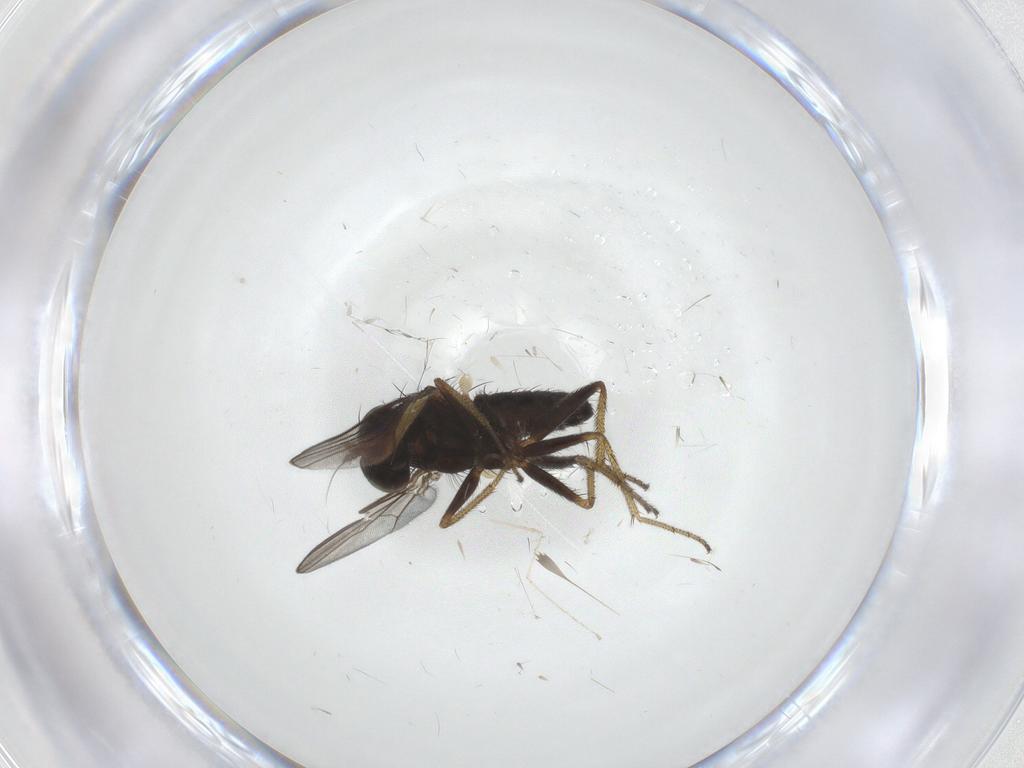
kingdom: Animalia
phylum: Arthropoda
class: Insecta
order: Diptera
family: Cecidomyiidae
